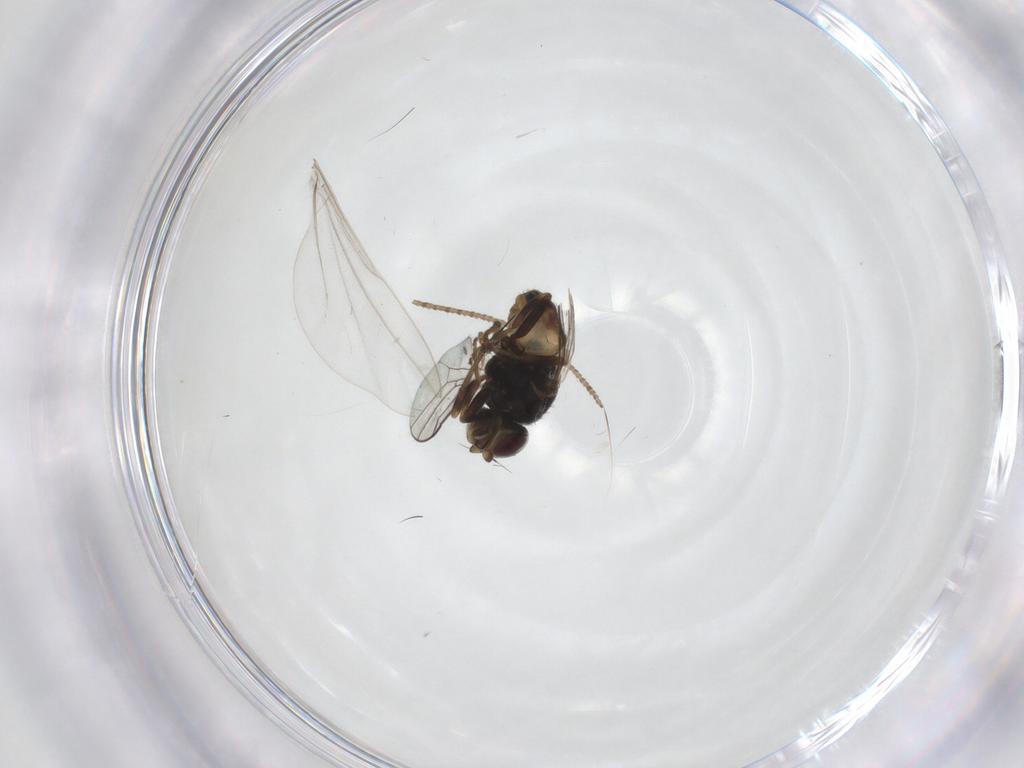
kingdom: Animalia
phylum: Arthropoda
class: Insecta
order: Diptera
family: Chloropidae
